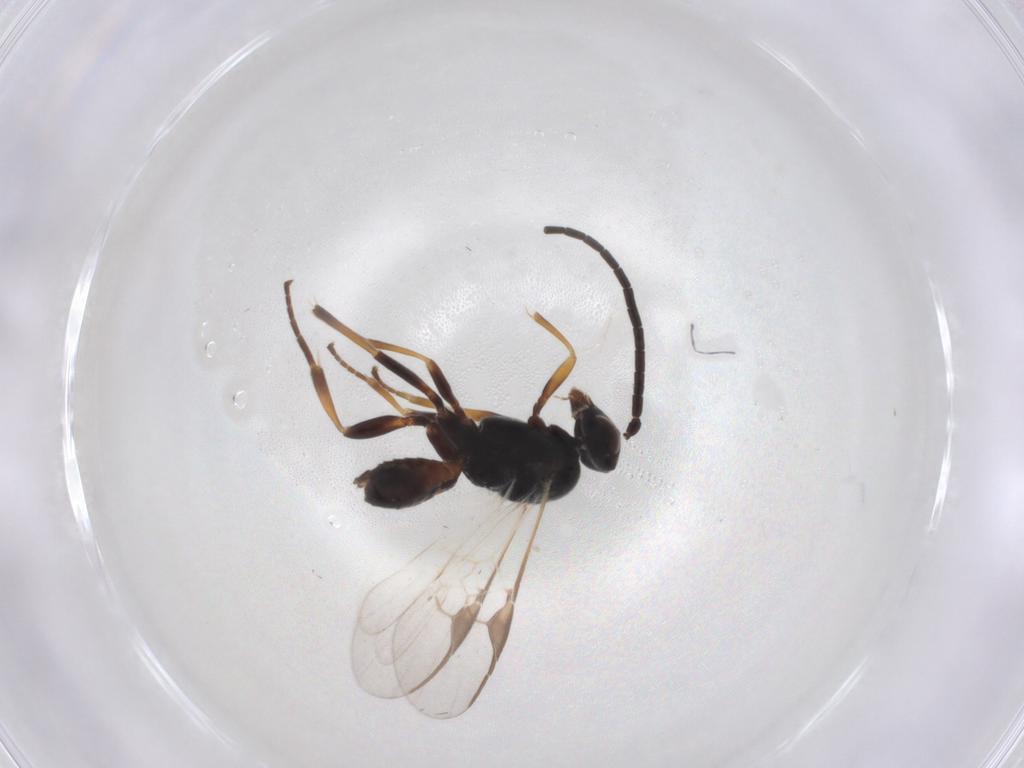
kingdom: Animalia
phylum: Arthropoda
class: Insecta
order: Hymenoptera
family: Braconidae
